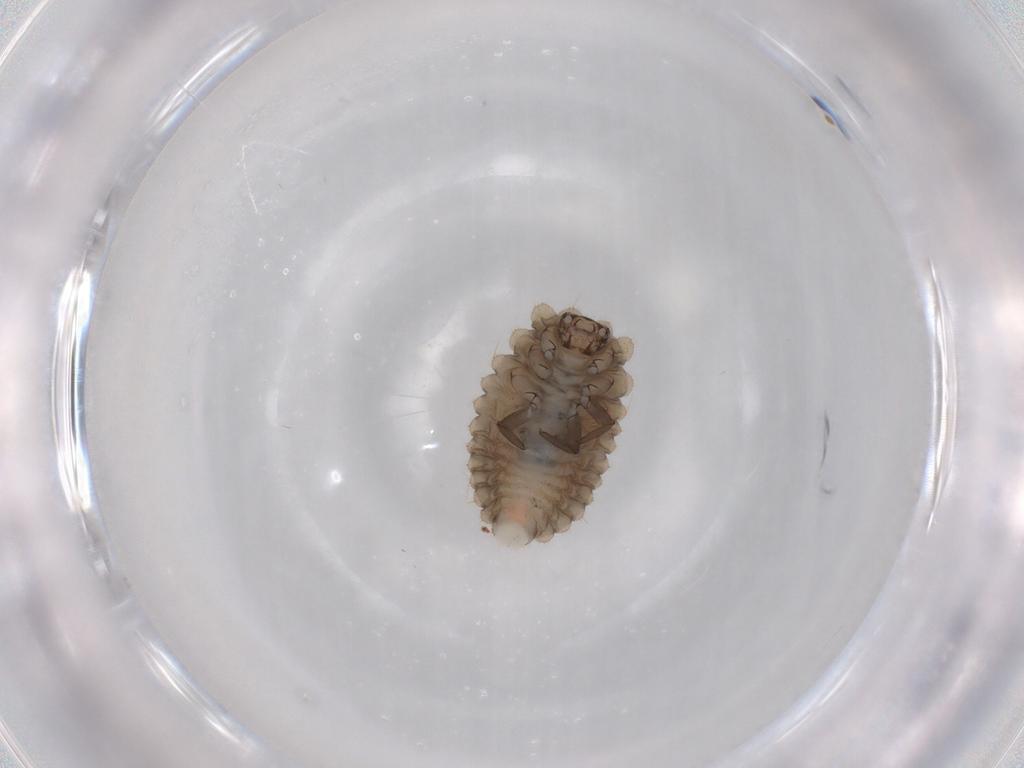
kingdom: Animalia
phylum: Arthropoda
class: Insecta
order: Coleoptera
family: Coccinellidae
